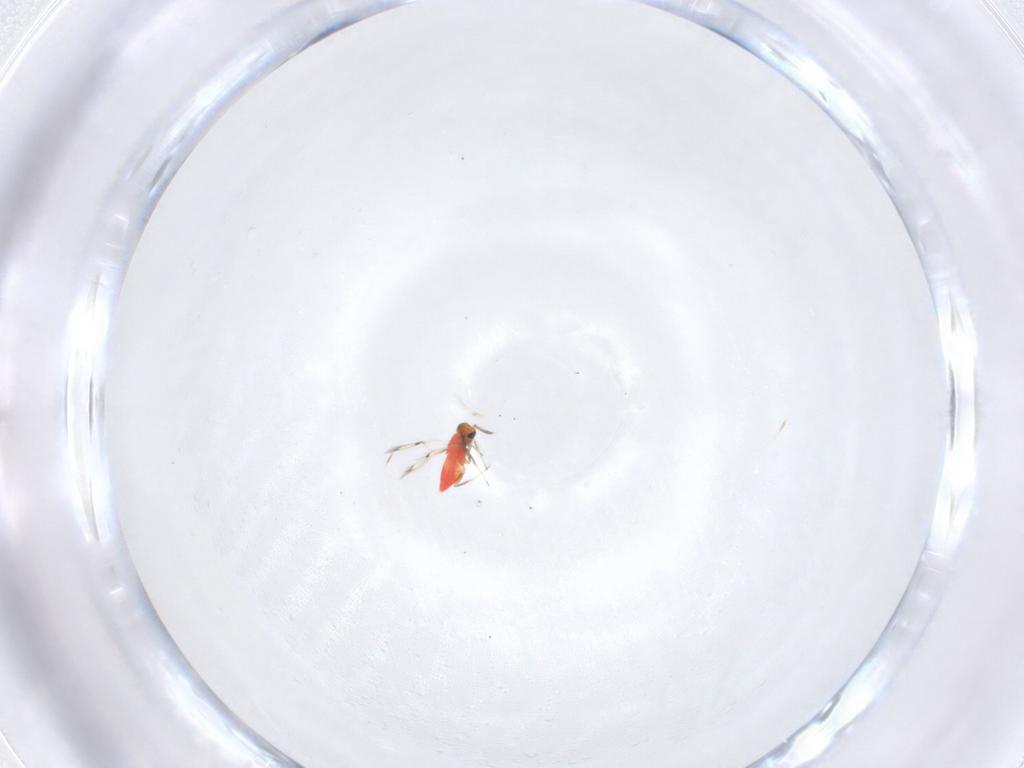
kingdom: Animalia
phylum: Arthropoda
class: Insecta
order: Hymenoptera
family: Trichogrammatidae
